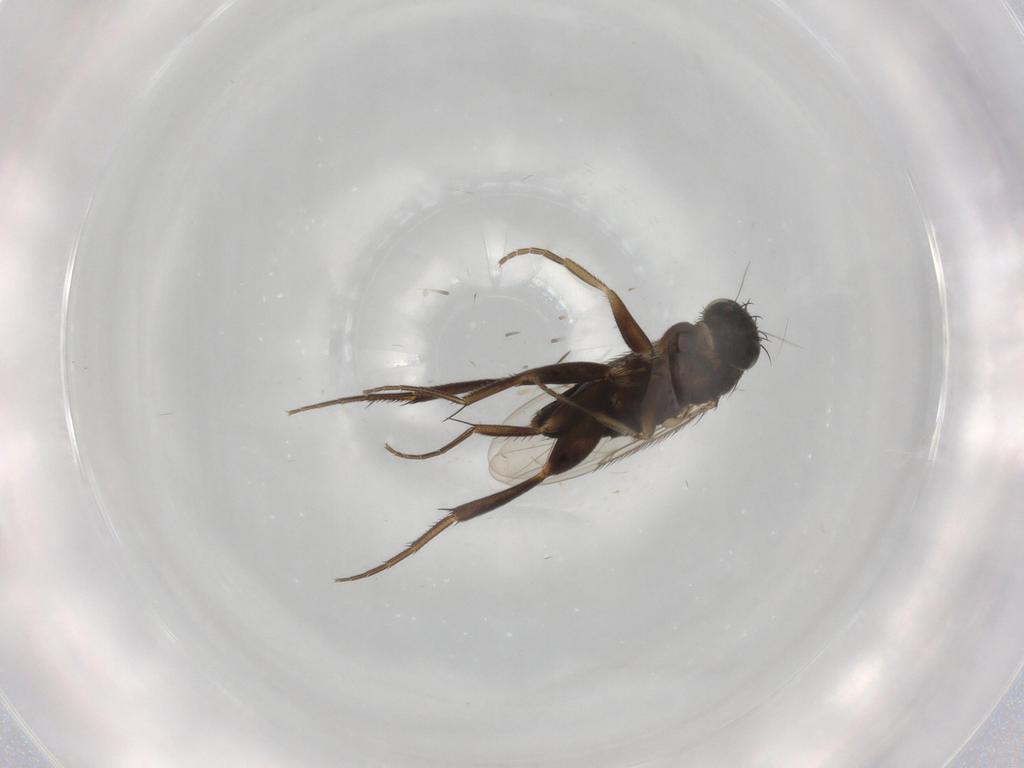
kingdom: Animalia
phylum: Arthropoda
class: Insecta
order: Diptera
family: Phoridae
